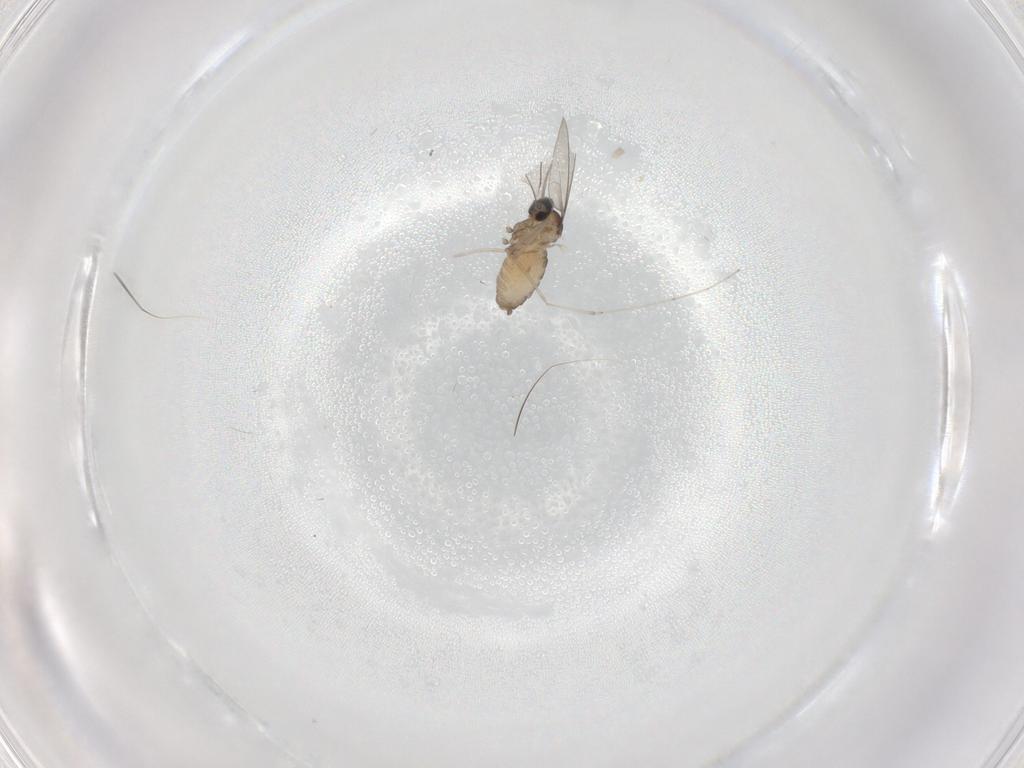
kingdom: Animalia
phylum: Arthropoda
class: Insecta
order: Diptera
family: Cecidomyiidae
